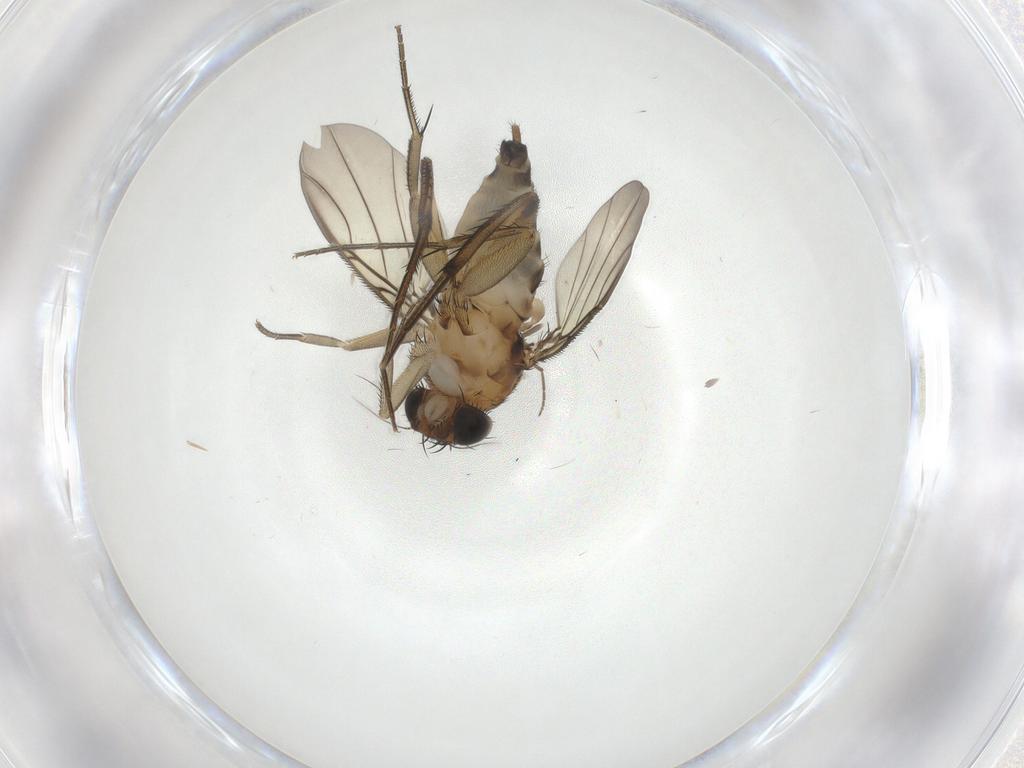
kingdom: Animalia
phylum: Arthropoda
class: Insecta
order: Diptera
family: Phoridae
